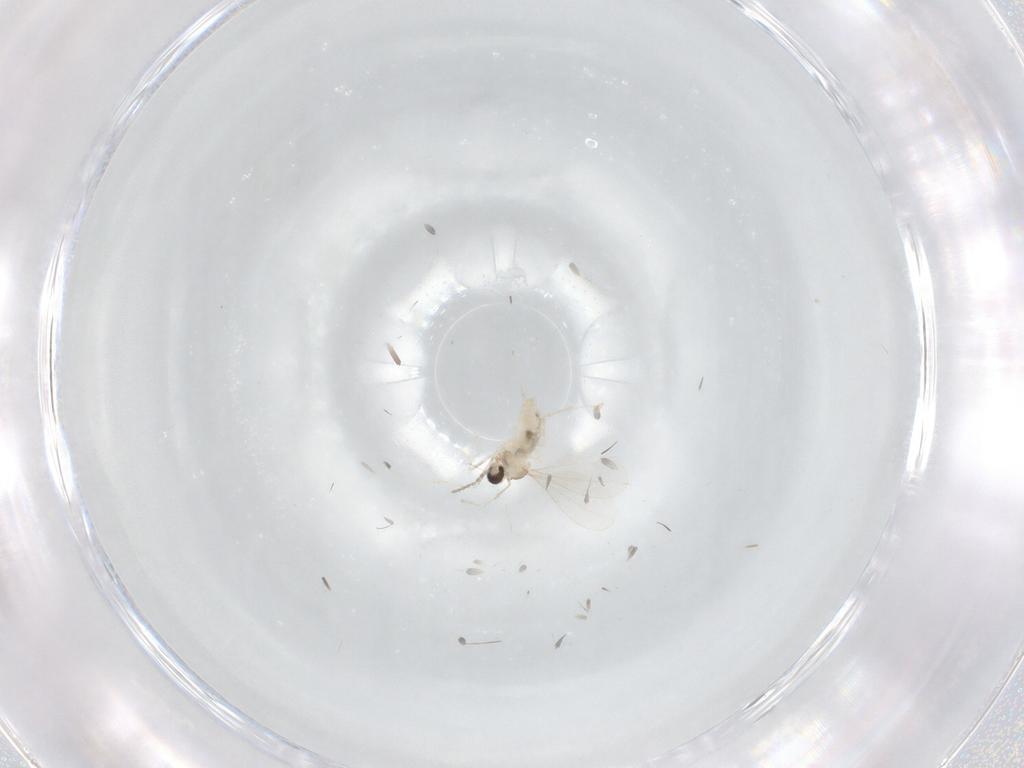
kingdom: Animalia
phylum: Arthropoda
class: Insecta
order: Diptera
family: Cecidomyiidae
